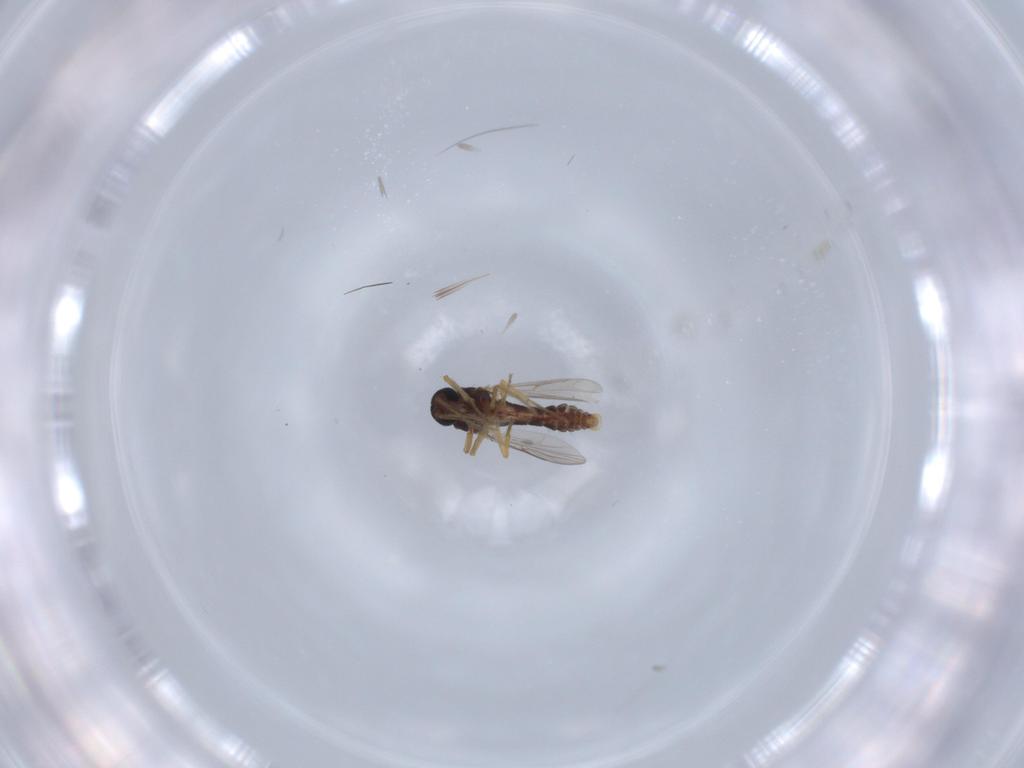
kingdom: Animalia
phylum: Arthropoda
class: Insecta
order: Diptera
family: Ceratopogonidae
